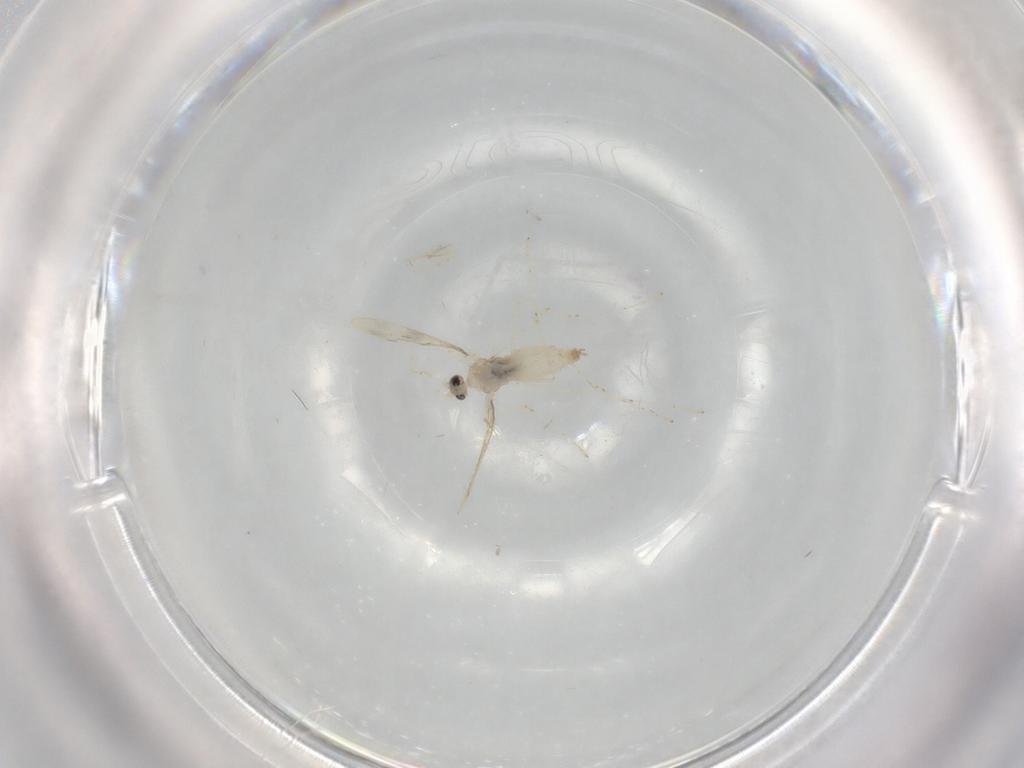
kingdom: Animalia
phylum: Arthropoda
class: Insecta
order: Diptera
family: Cecidomyiidae
